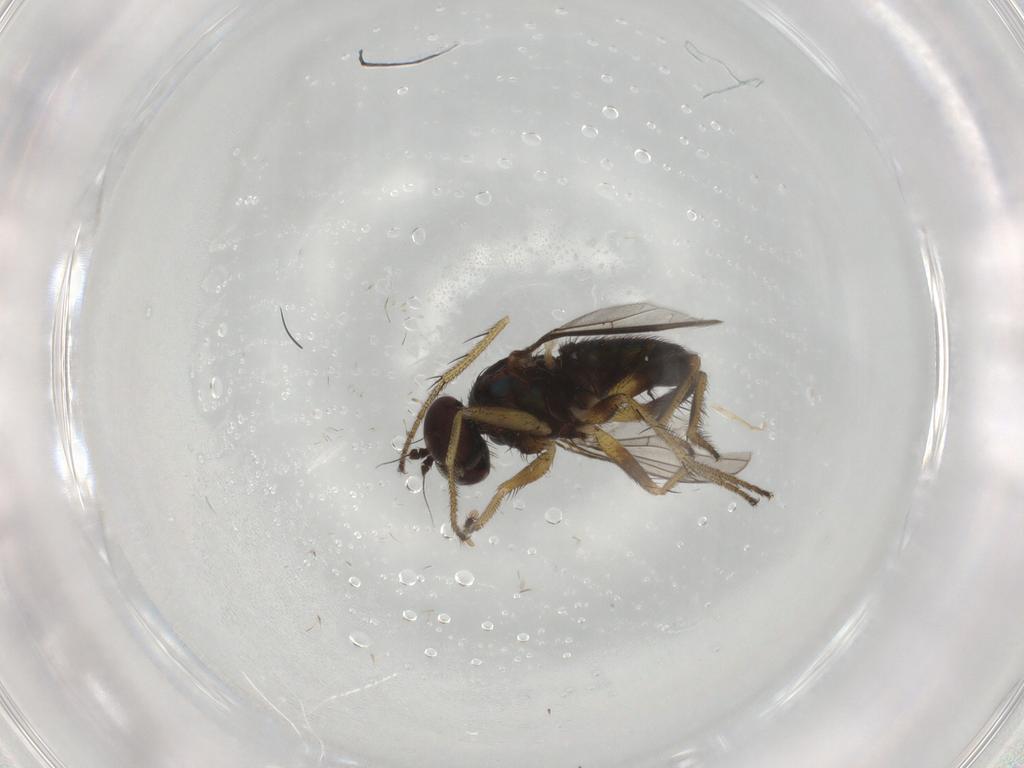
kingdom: Animalia
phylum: Arthropoda
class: Insecta
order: Diptera
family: Dolichopodidae
